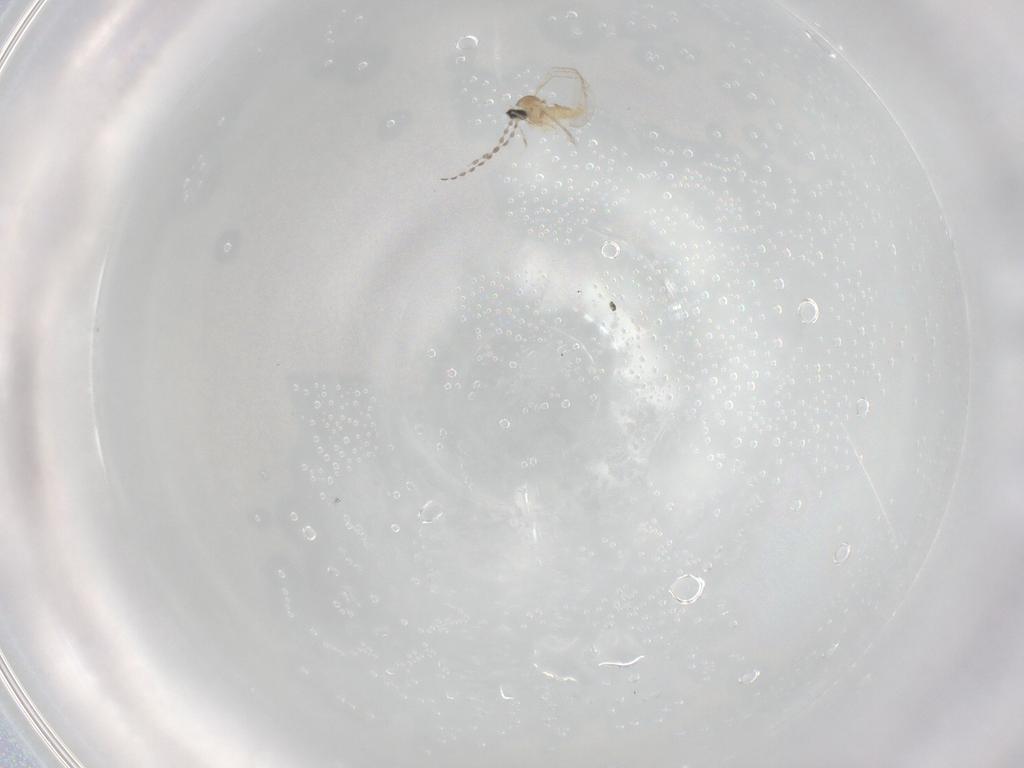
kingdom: Animalia
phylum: Arthropoda
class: Insecta
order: Diptera
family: Cecidomyiidae
